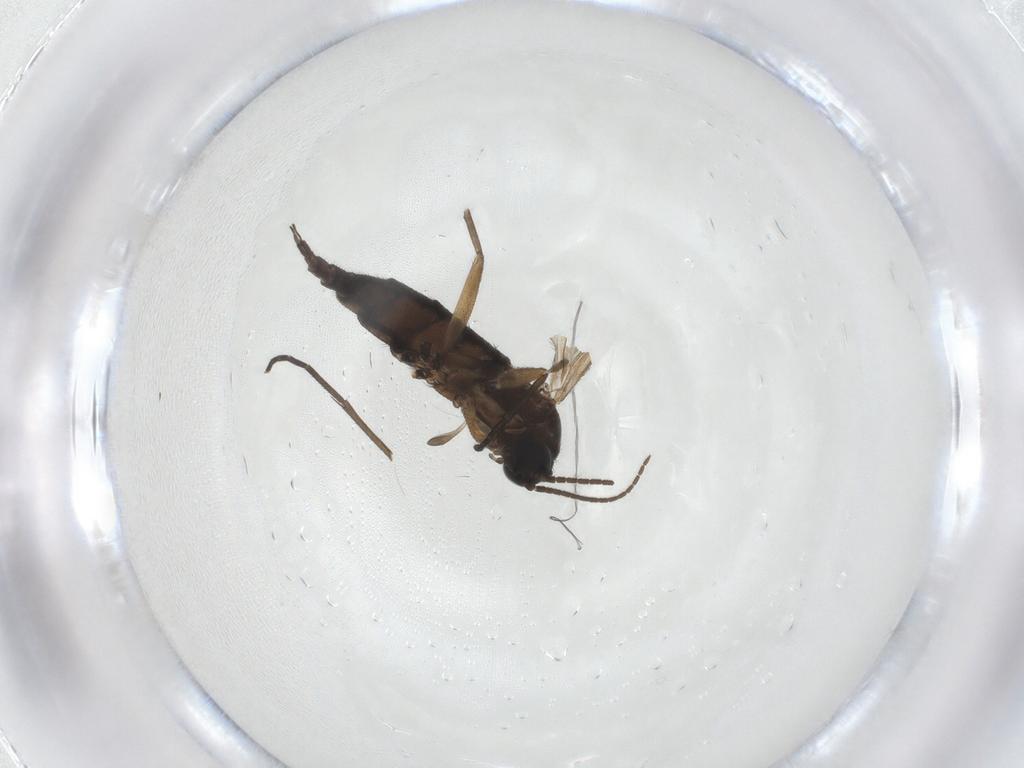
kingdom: Animalia
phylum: Arthropoda
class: Insecta
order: Diptera
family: Sciaridae
